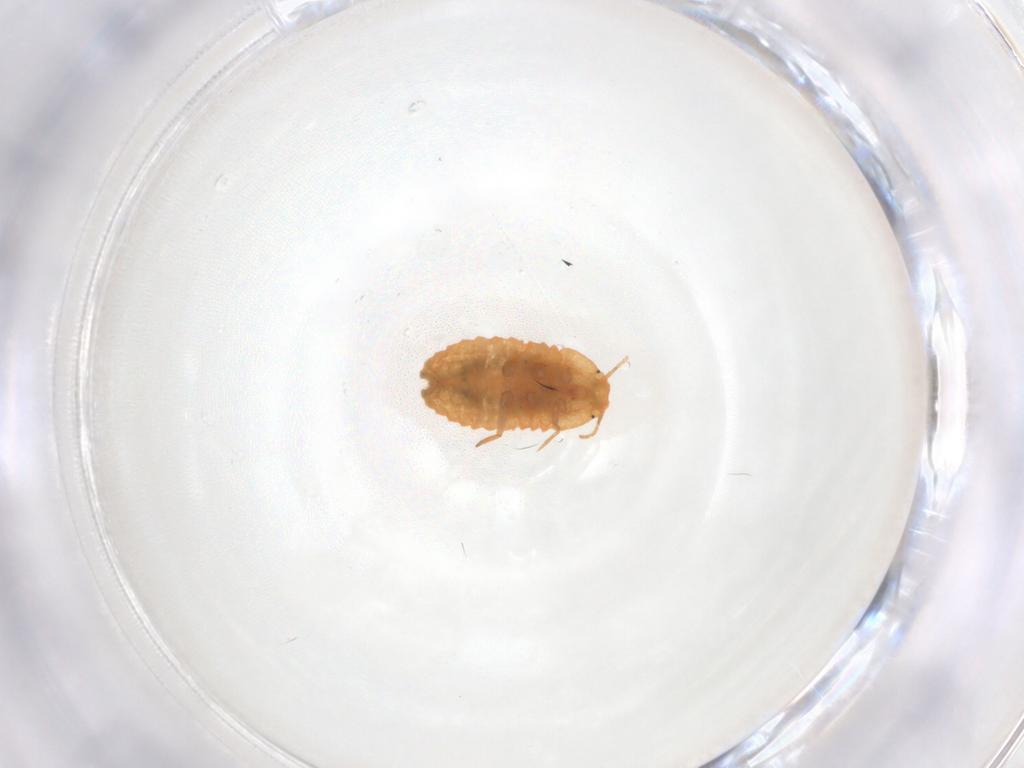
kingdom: Animalia
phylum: Arthropoda
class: Insecta
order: Hemiptera
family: Pseudococcidae
